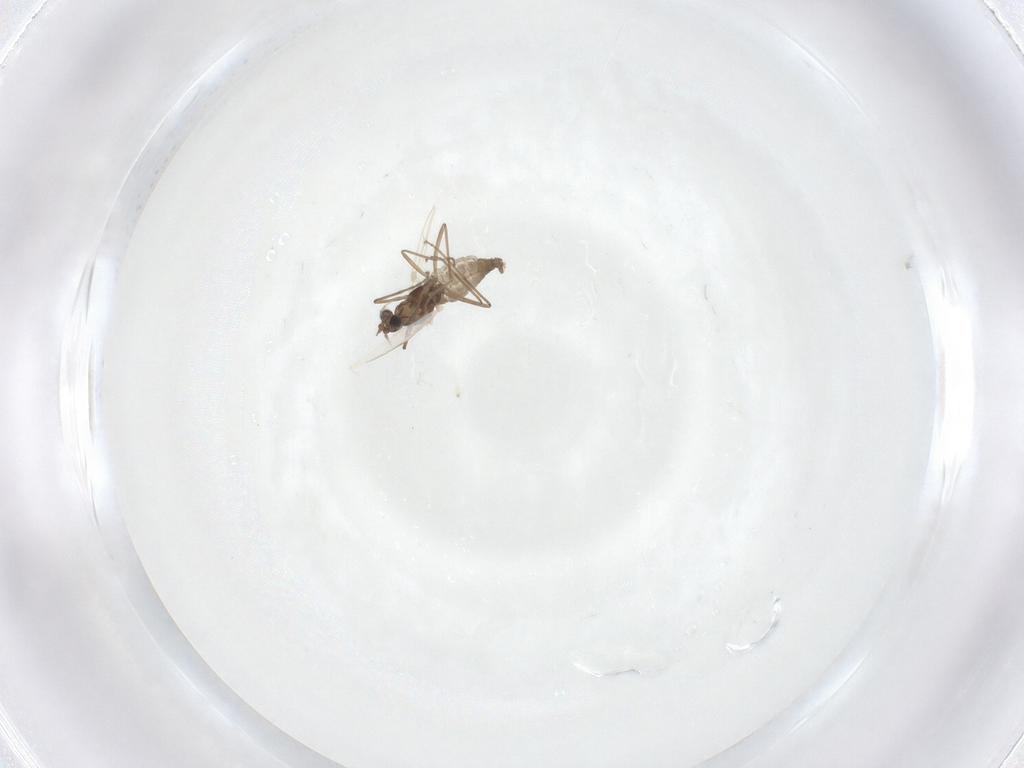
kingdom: Animalia
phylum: Arthropoda
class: Insecta
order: Diptera
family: Cecidomyiidae
